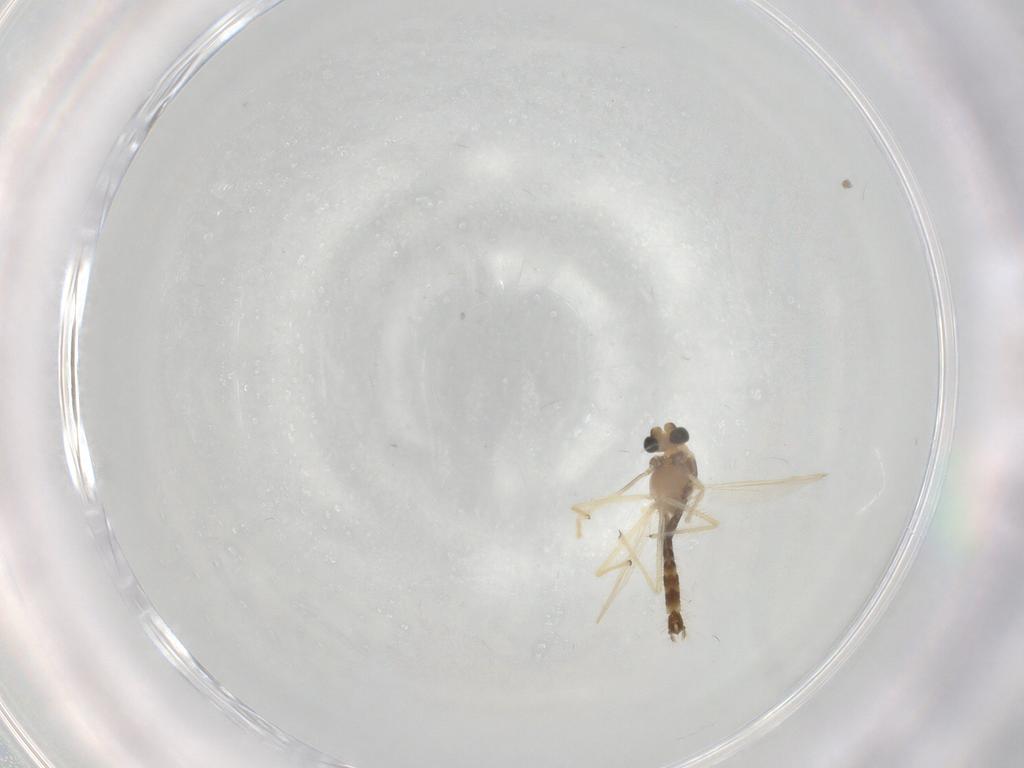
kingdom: Animalia
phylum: Arthropoda
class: Insecta
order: Diptera
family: Chironomidae
